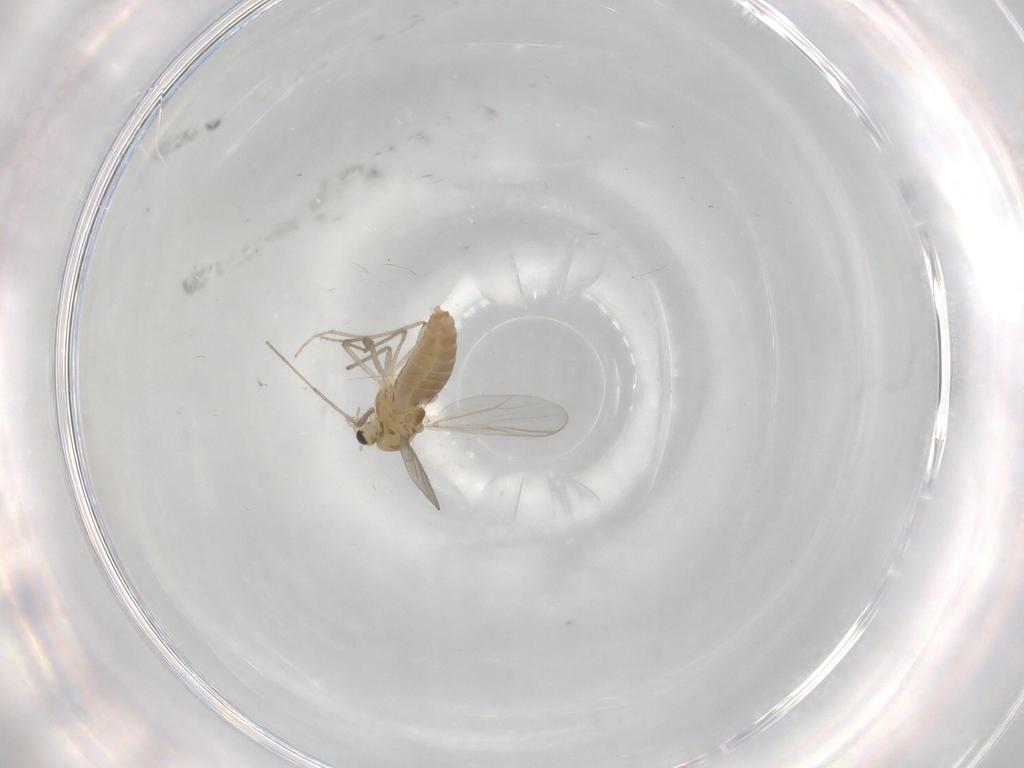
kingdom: Animalia
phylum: Arthropoda
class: Insecta
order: Diptera
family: Chironomidae
